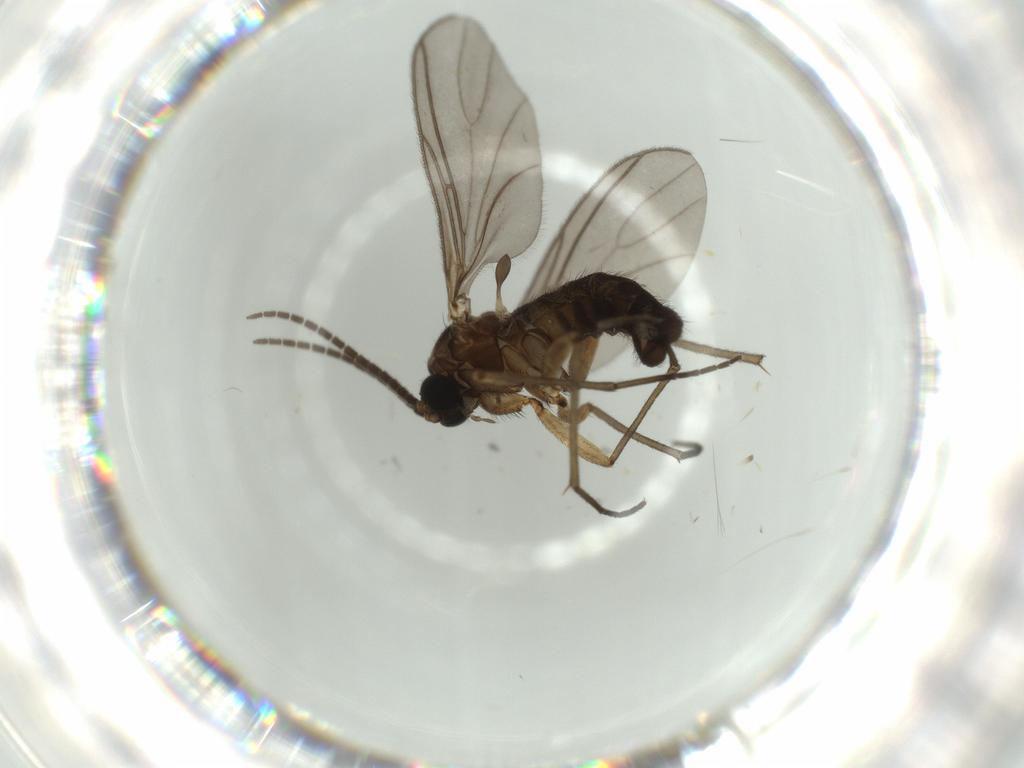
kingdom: Animalia
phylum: Arthropoda
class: Insecta
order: Diptera
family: Sciaridae
